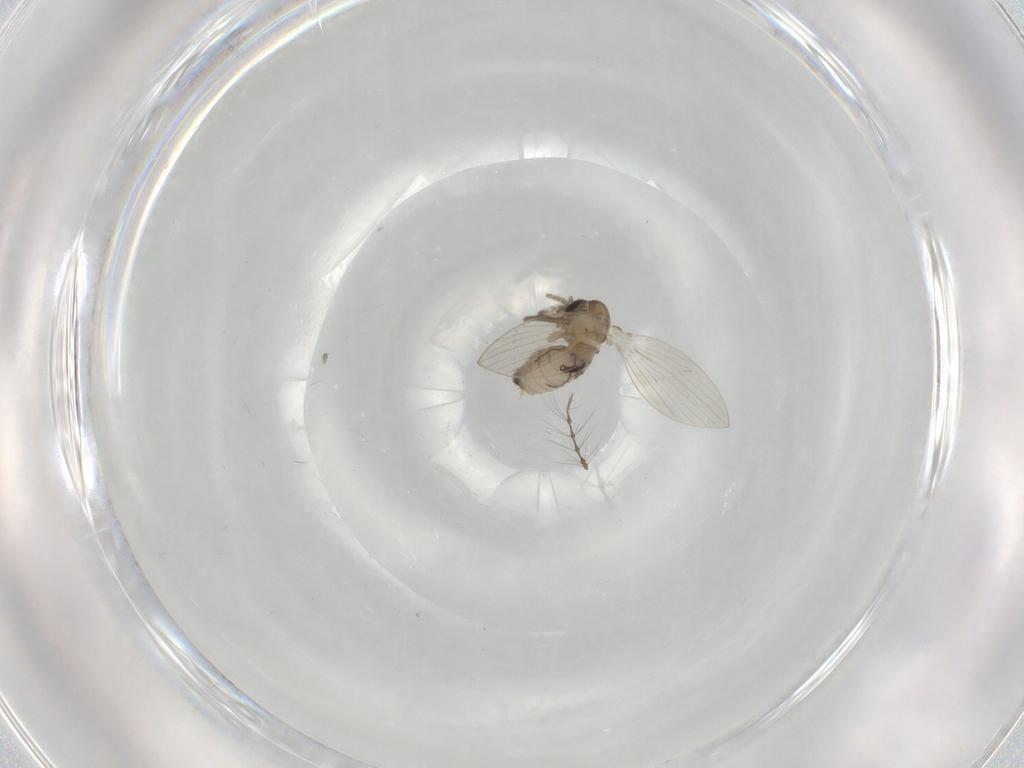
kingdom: Animalia
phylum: Arthropoda
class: Insecta
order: Diptera
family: Psychodidae
